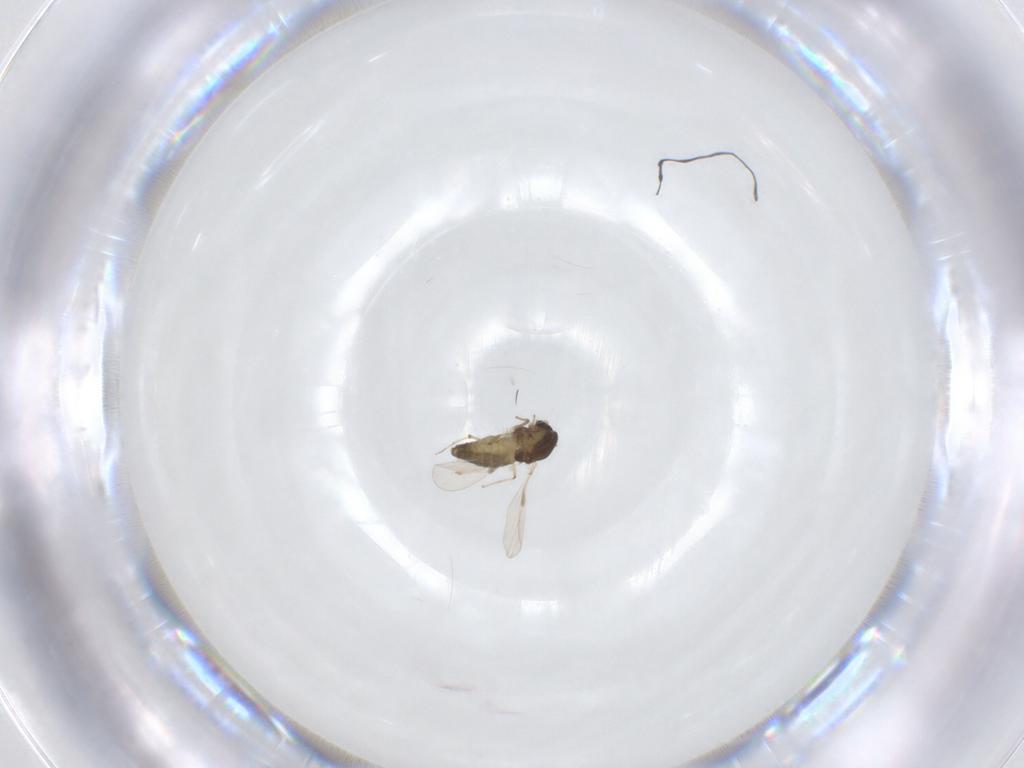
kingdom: Animalia
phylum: Arthropoda
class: Insecta
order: Diptera
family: Chironomidae
